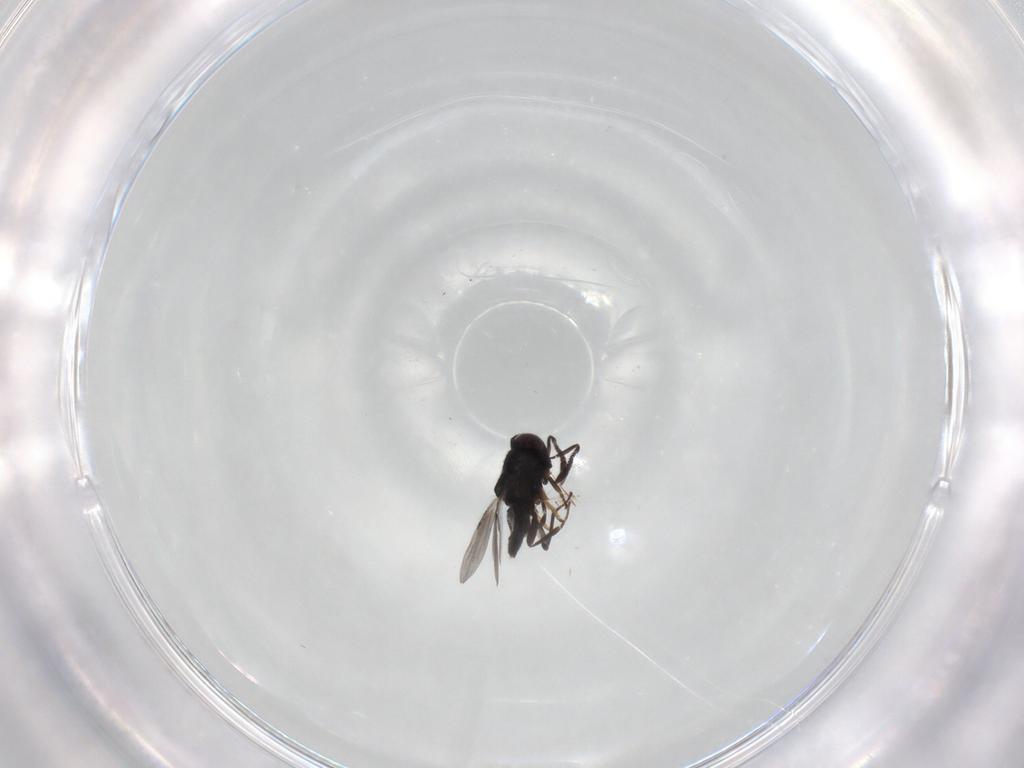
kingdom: Animalia
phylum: Arthropoda
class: Insecta
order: Hymenoptera
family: Encyrtidae
